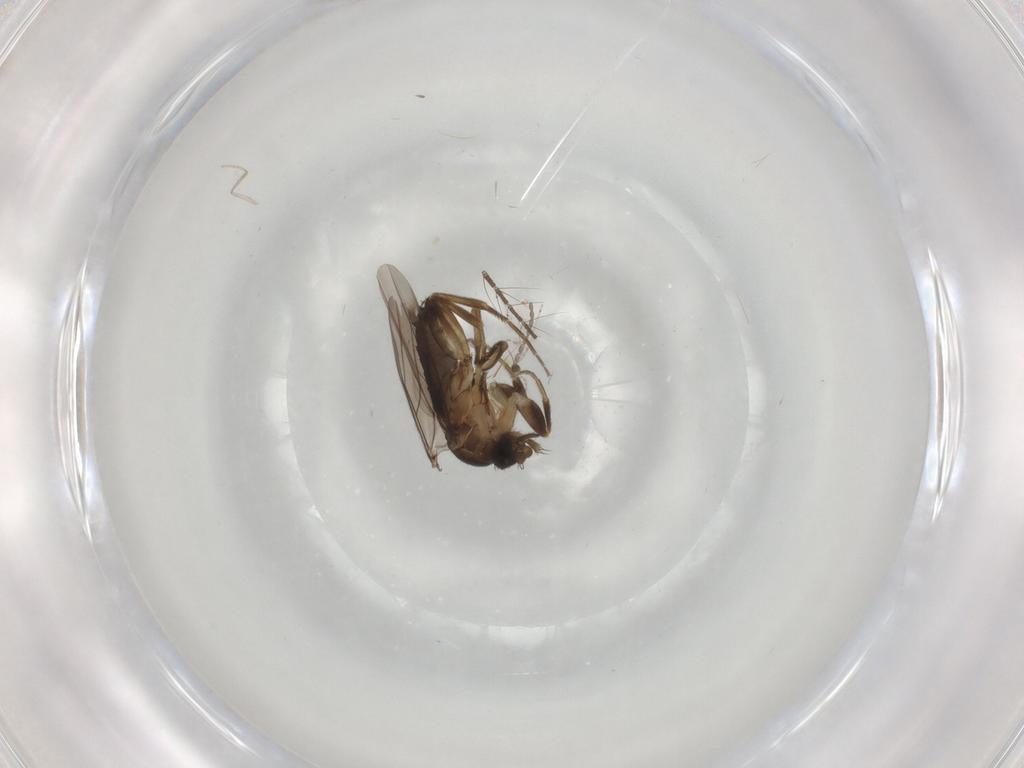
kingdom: Animalia
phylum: Arthropoda
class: Insecta
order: Diptera
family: Culicidae
